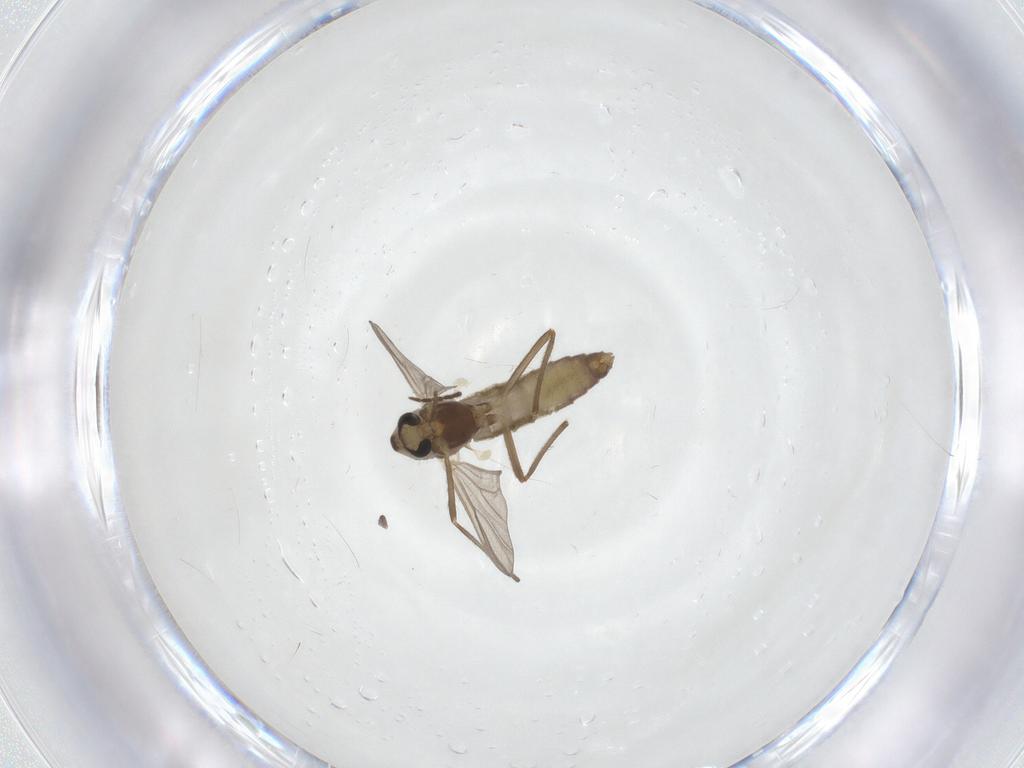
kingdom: Animalia
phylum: Arthropoda
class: Insecta
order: Diptera
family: Chironomidae
